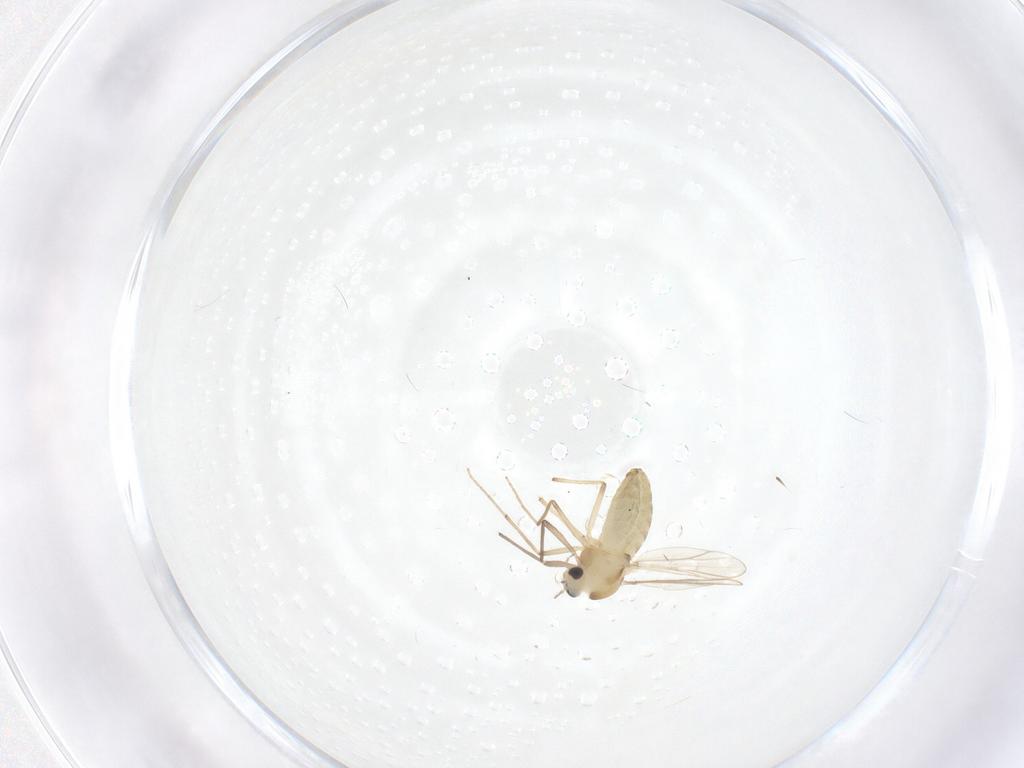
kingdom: Animalia
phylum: Arthropoda
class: Insecta
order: Diptera
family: Chironomidae
